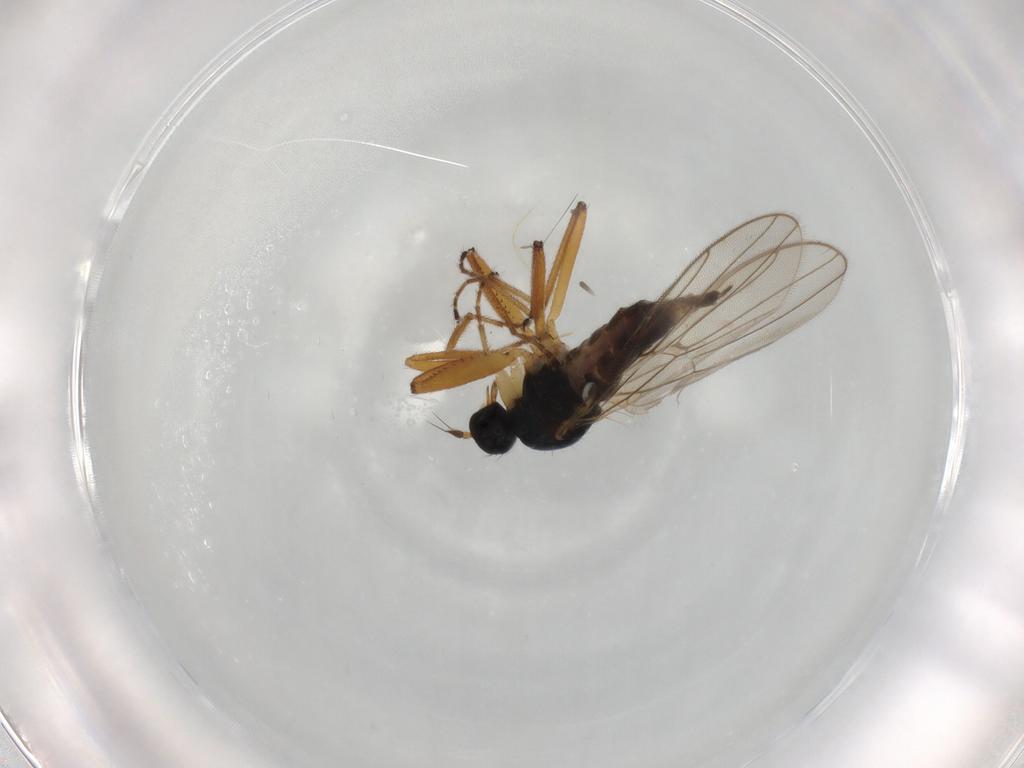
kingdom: Animalia
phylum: Arthropoda
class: Insecta
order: Diptera
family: Hybotidae
